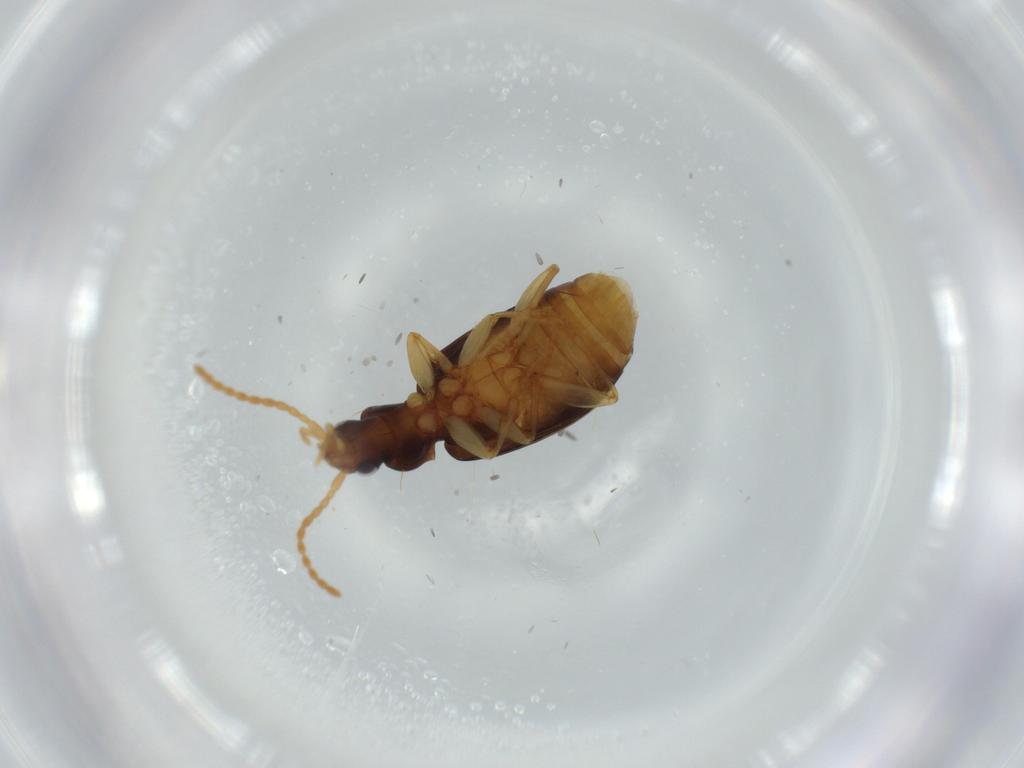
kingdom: Animalia
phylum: Arthropoda
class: Insecta
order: Coleoptera
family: Carabidae
